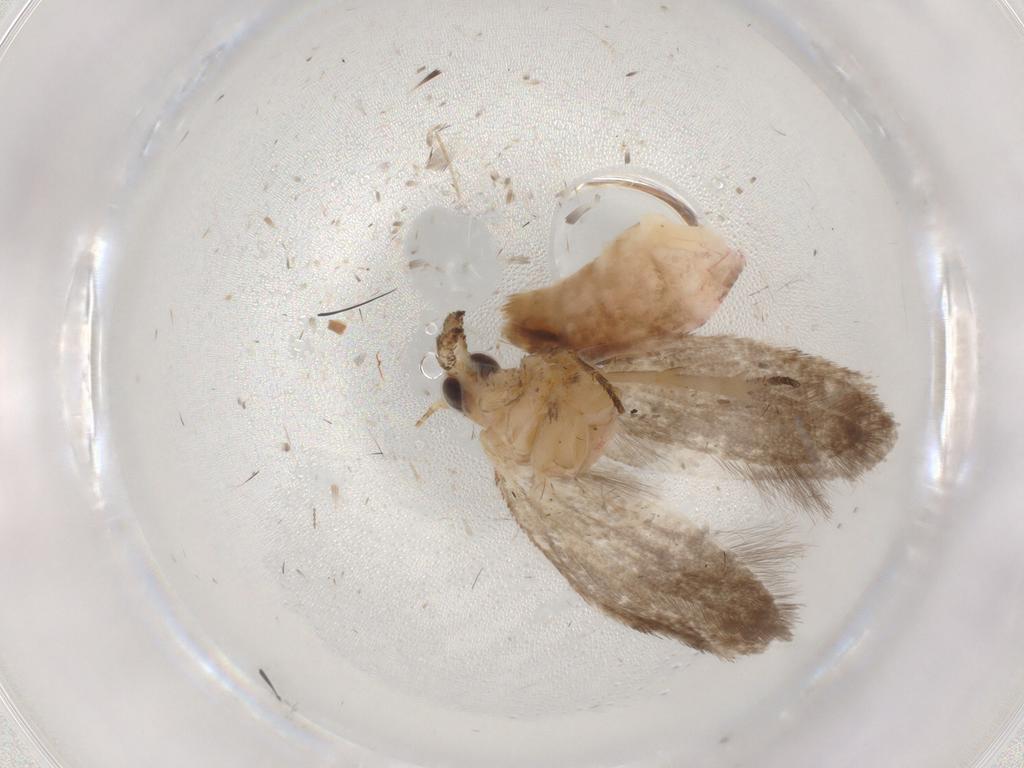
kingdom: Animalia
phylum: Arthropoda
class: Insecta
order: Lepidoptera
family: Plutellidae
